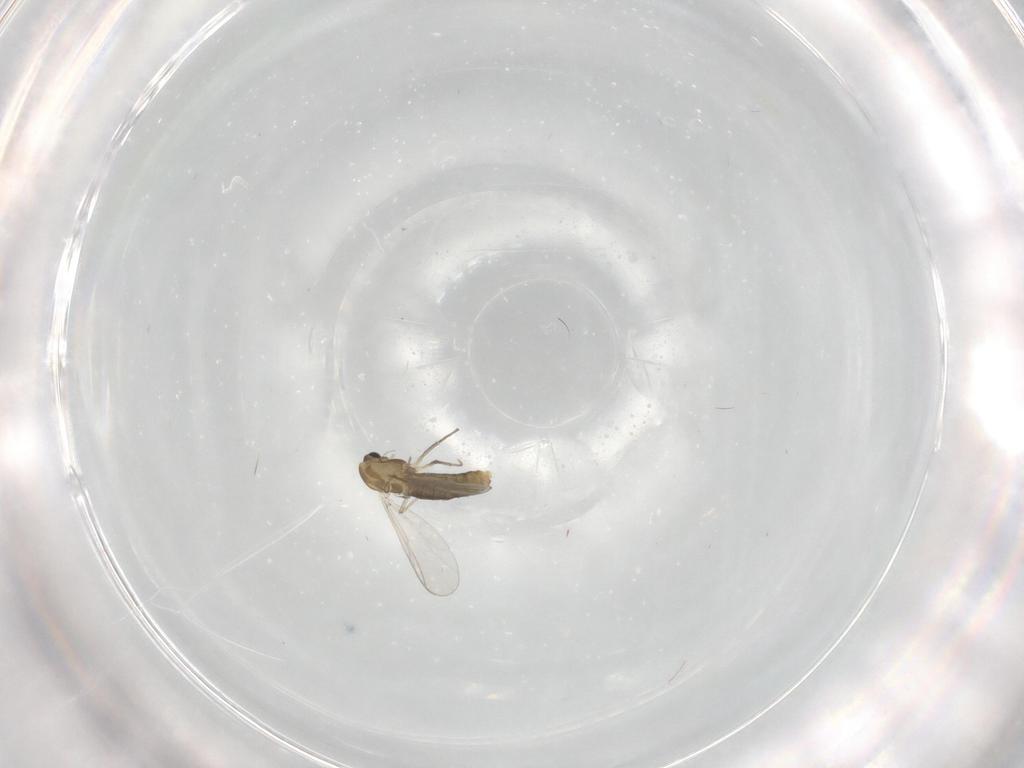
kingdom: Animalia
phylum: Arthropoda
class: Insecta
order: Diptera
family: Chironomidae
